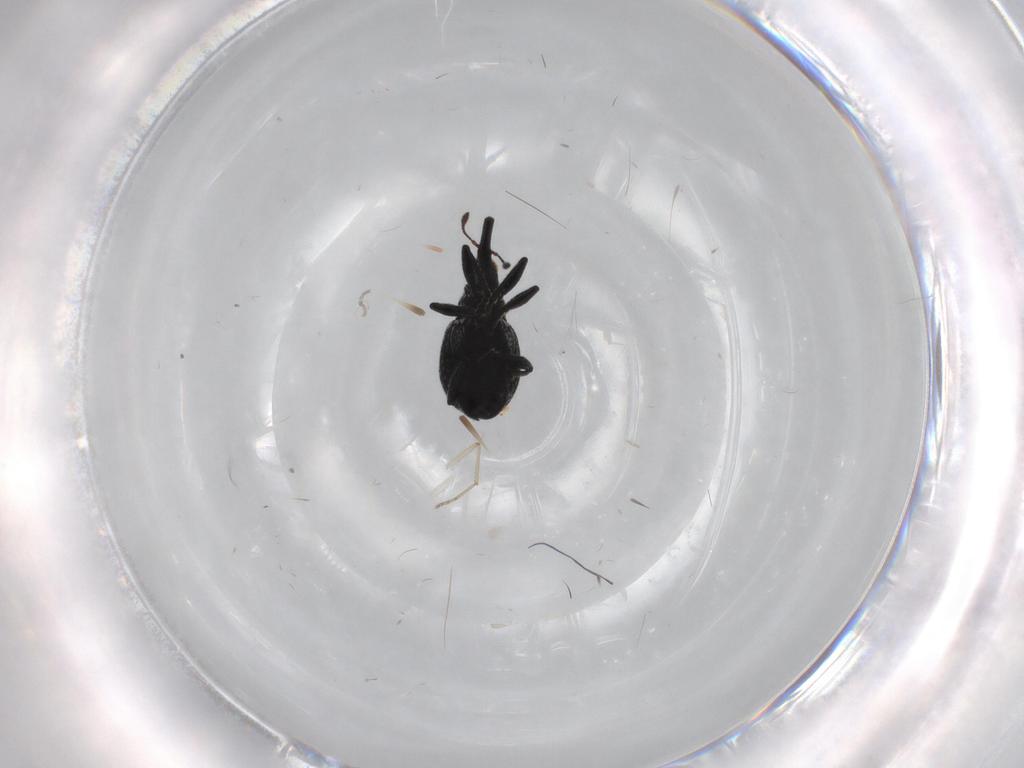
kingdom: Animalia
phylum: Arthropoda
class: Insecta
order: Coleoptera
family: Brentidae
